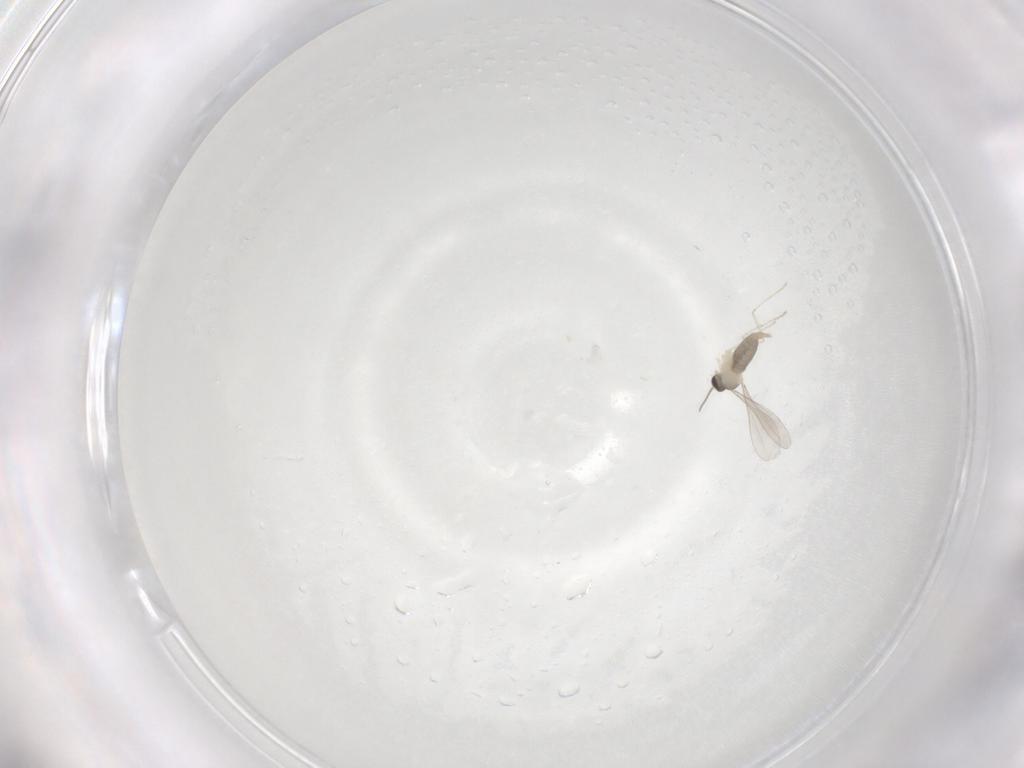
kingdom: Animalia
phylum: Arthropoda
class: Insecta
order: Diptera
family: Cecidomyiidae
